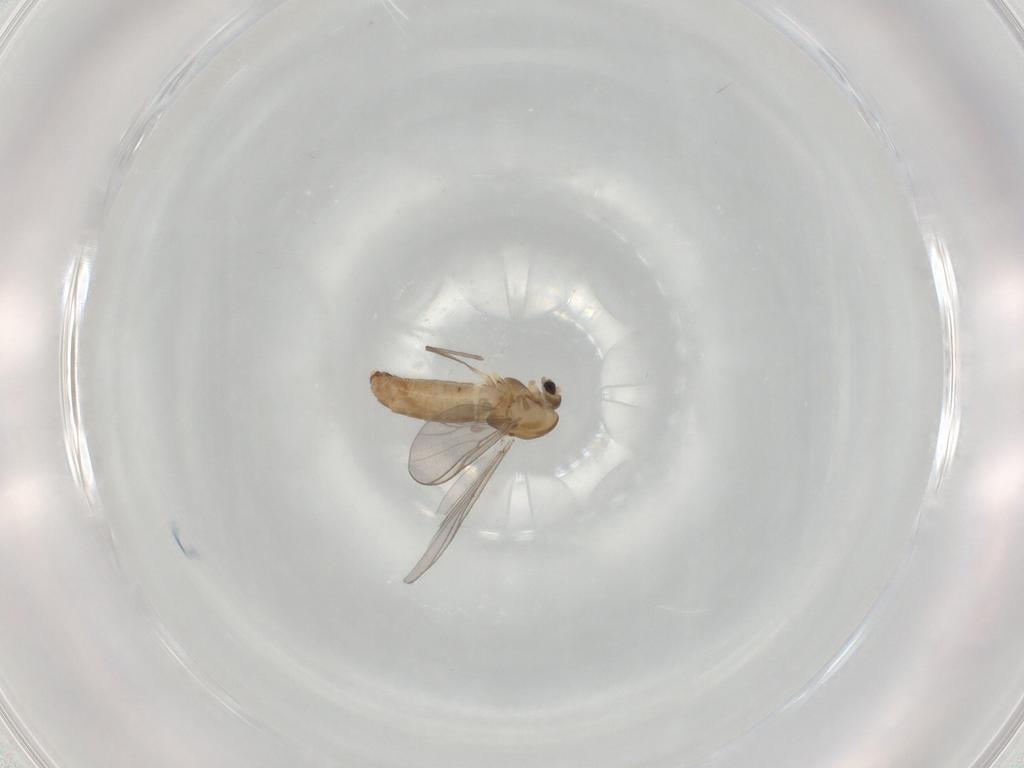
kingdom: Animalia
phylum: Arthropoda
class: Insecta
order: Diptera
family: Chironomidae
